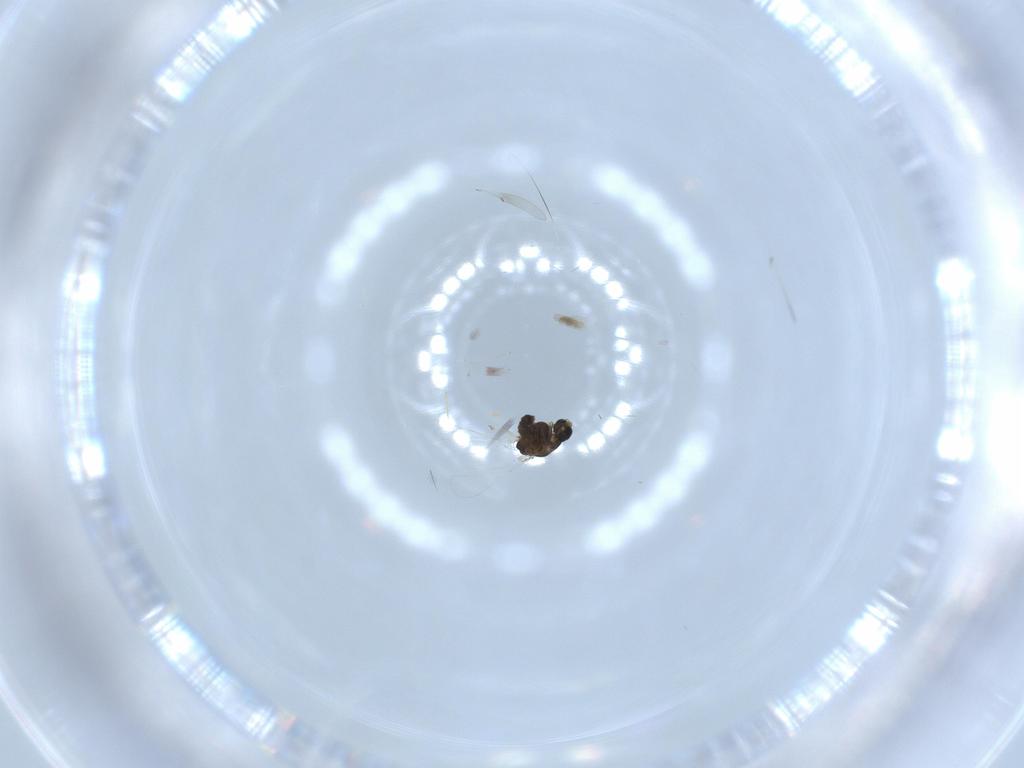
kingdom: Animalia
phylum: Arthropoda
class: Insecta
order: Diptera
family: Chironomidae
